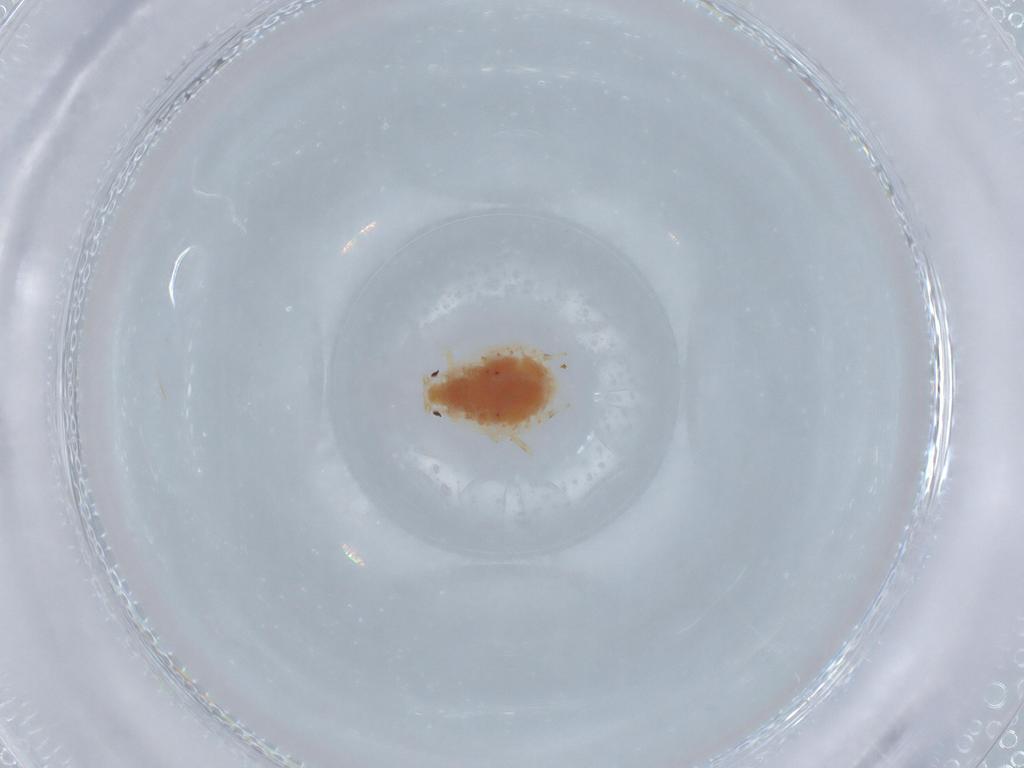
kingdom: Animalia
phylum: Arthropoda
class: Insecta
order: Hemiptera
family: Aphididae
